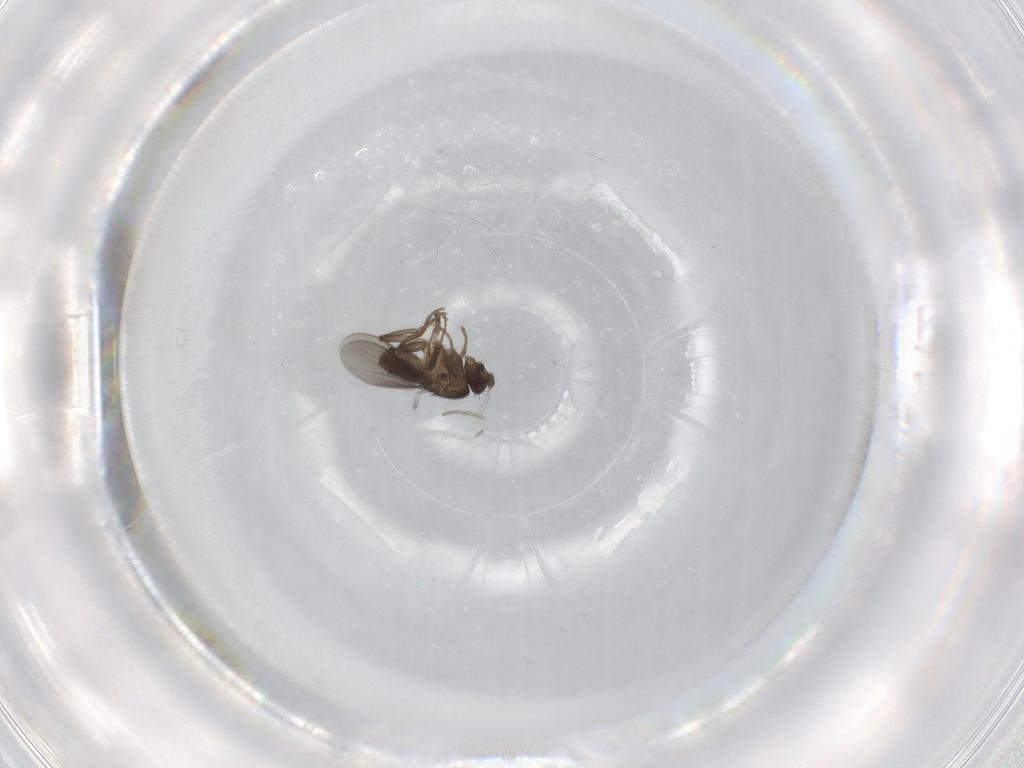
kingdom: Animalia
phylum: Arthropoda
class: Insecta
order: Diptera
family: Sphaeroceridae
